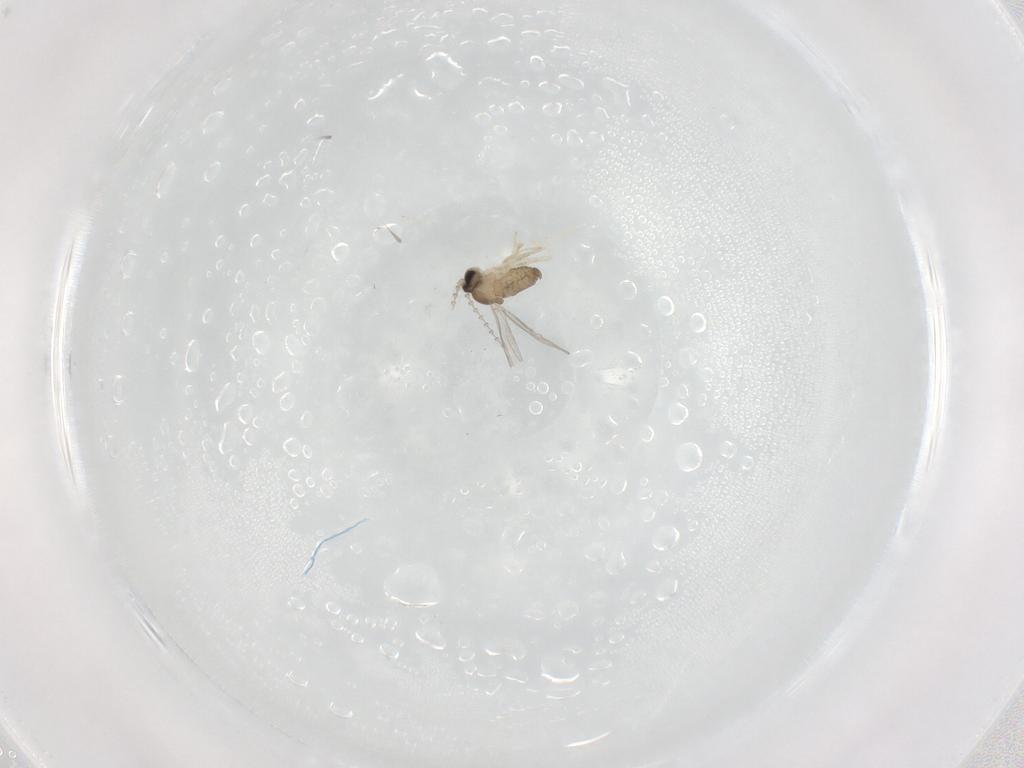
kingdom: Animalia
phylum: Arthropoda
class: Insecta
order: Diptera
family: Cecidomyiidae
